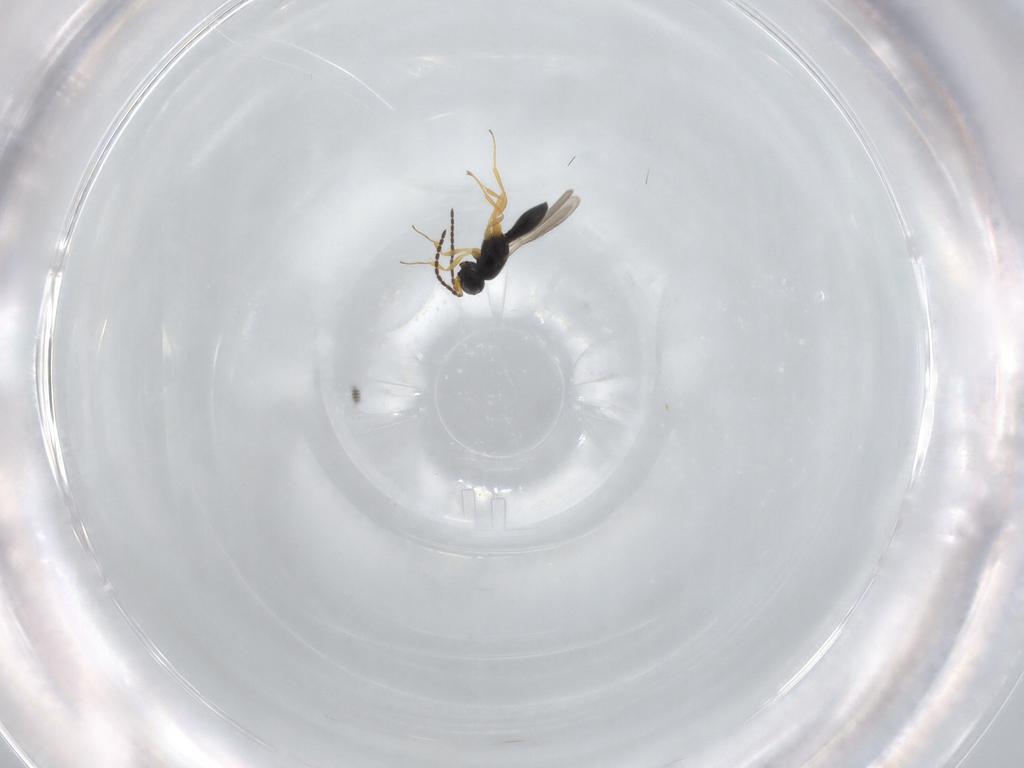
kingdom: Animalia
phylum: Arthropoda
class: Insecta
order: Hymenoptera
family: Scelionidae
